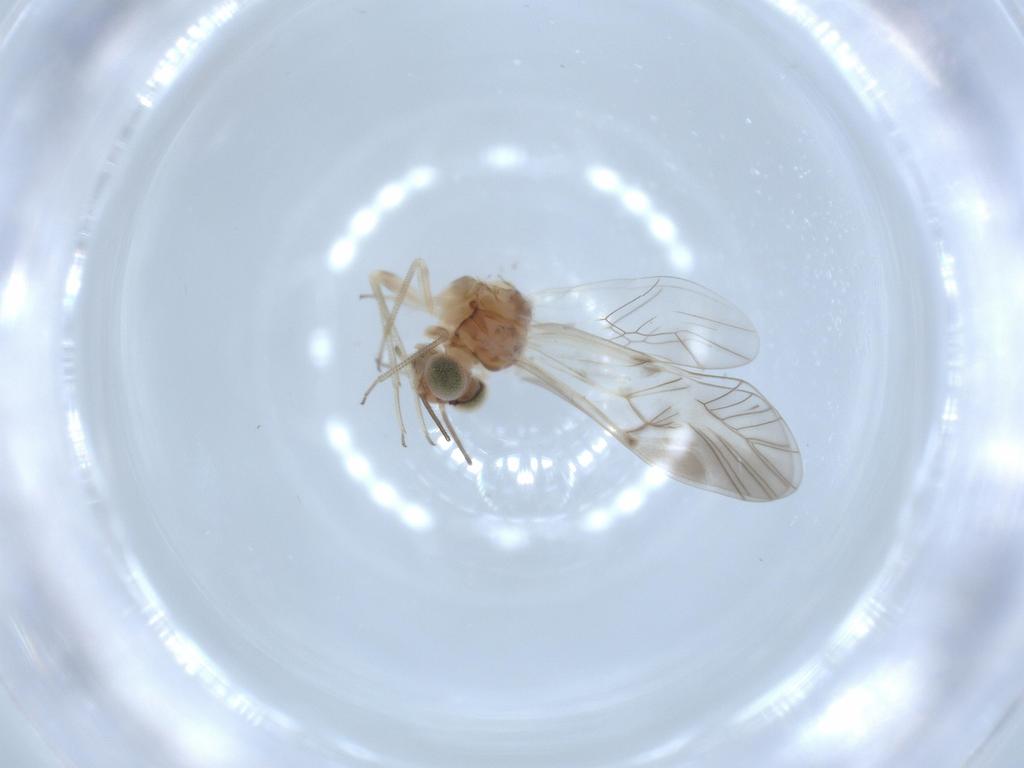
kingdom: Animalia
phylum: Arthropoda
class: Insecta
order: Psocodea
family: Psocidae
